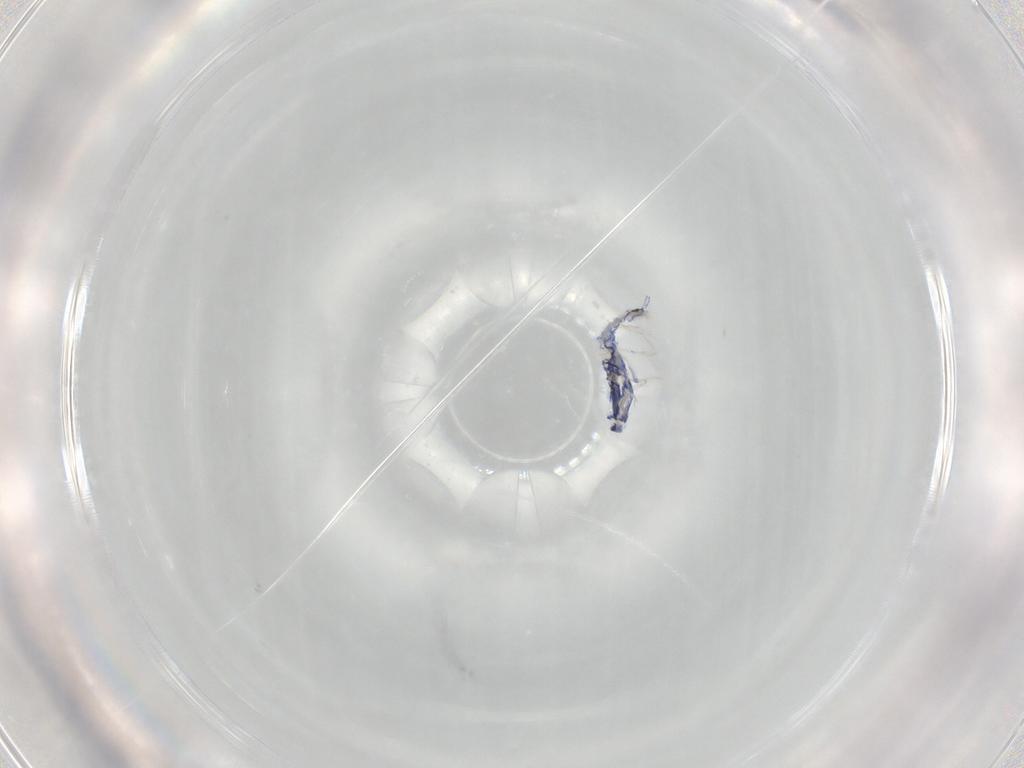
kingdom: Animalia
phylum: Arthropoda
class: Collembola
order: Entomobryomorpha
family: Entomobryidae
